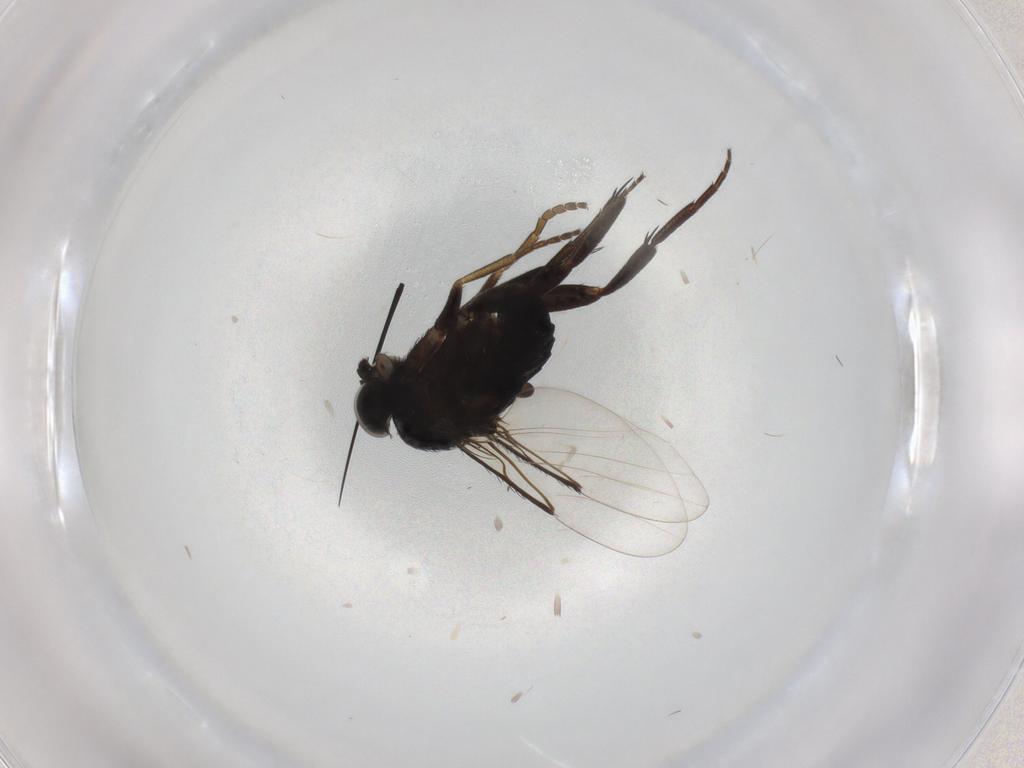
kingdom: Animalia
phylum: Arthropoda
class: Insecta
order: Diptera
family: Phoridae
